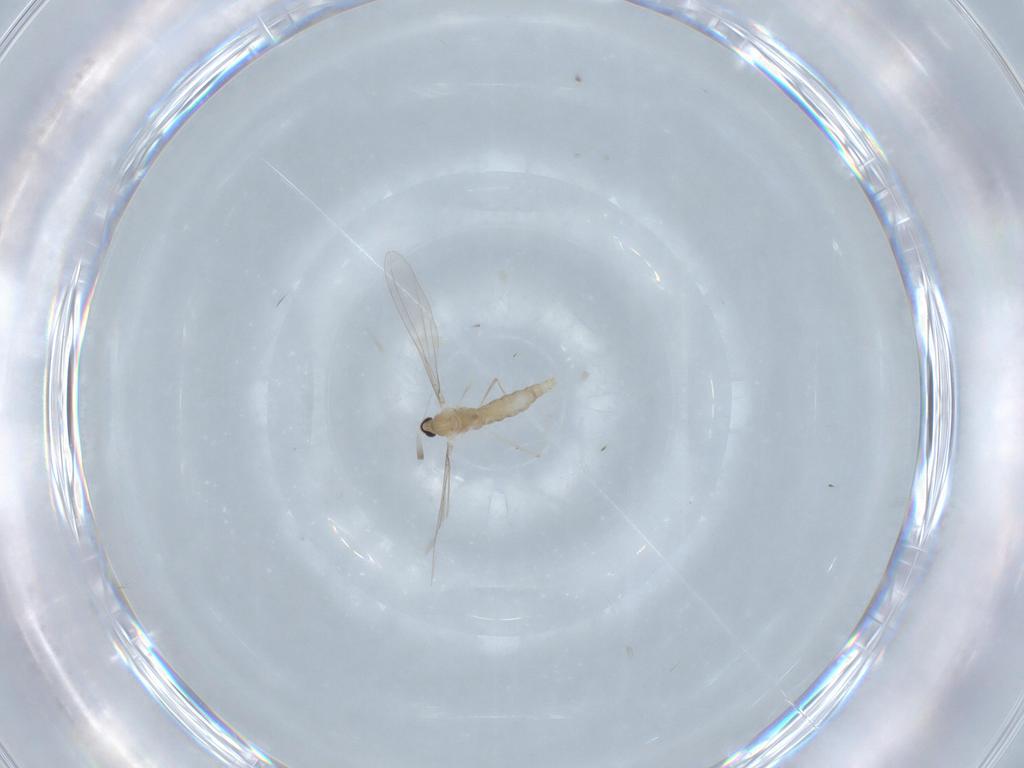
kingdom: Animalia
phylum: Arthropoda
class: Insecta
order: Diptera
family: Cecidomyiidae
